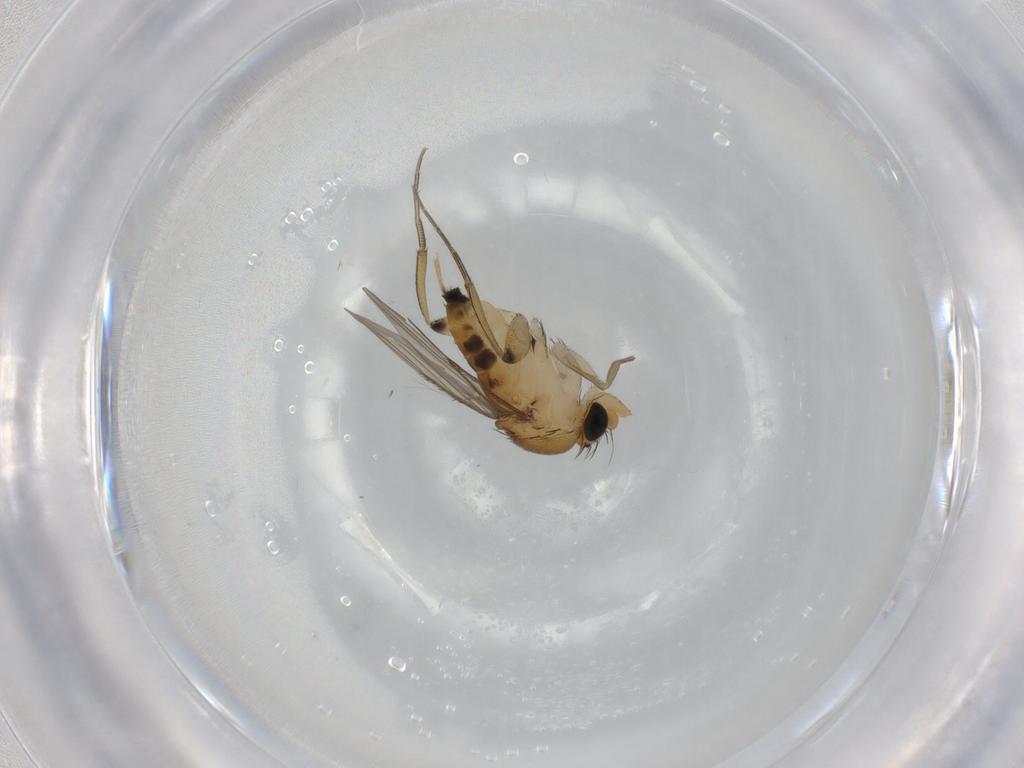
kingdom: Animalia
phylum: Arthropoda
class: Insecta
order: Diptera
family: Phoridae
